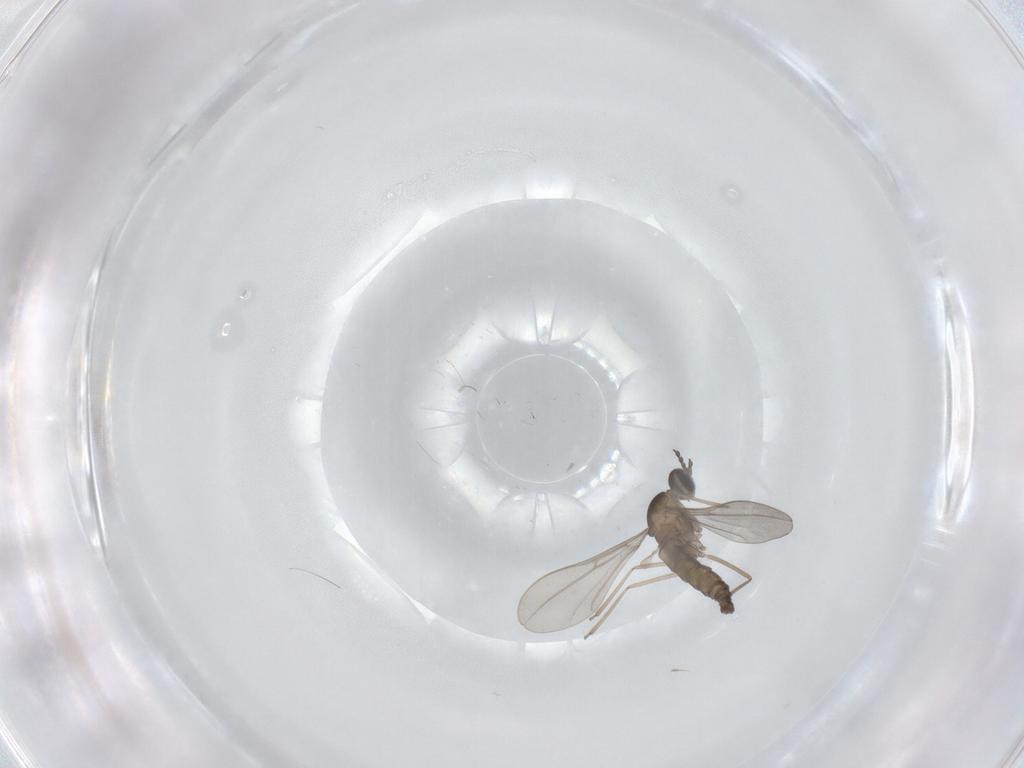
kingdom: Animalia
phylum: Arthropoda
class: Insecta
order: Diptera
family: Cecidomyiidae
